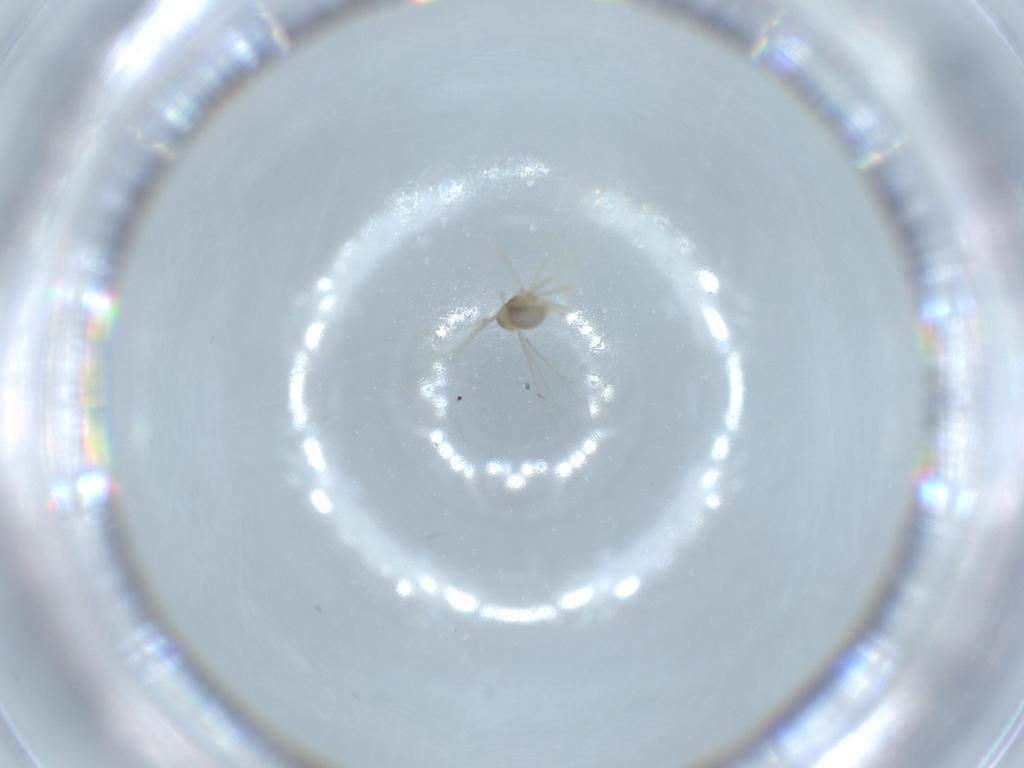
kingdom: Animalia
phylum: Arthropoda
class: Insecta
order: Diptera
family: Cecidomyiidae
